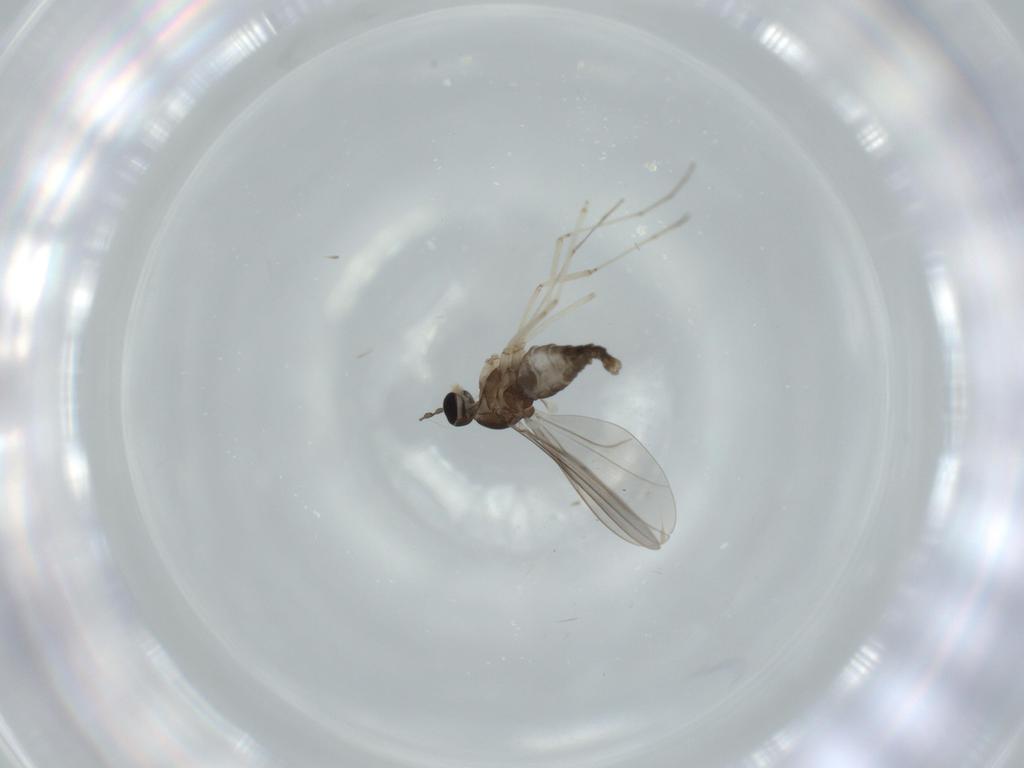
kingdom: Animalia
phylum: Arthropoda
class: Insecta
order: Diptera
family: Cecidomyiidae
